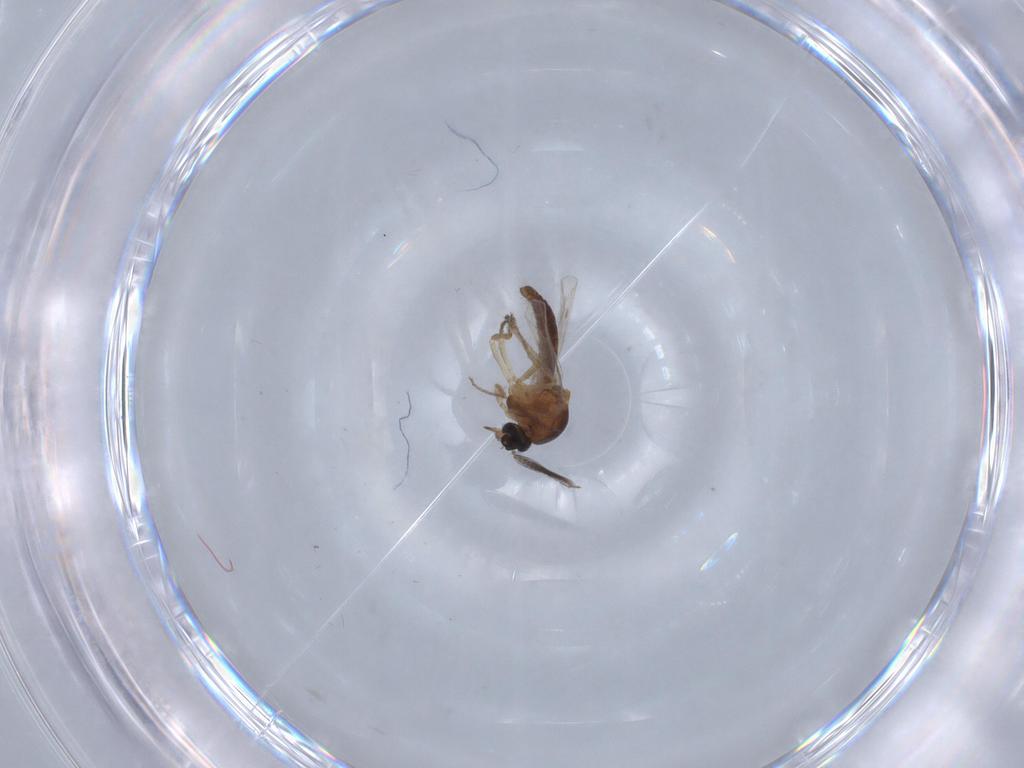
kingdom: Animalia
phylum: Arthropoda
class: Insecta
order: Diptera
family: Ceratopogonidae
